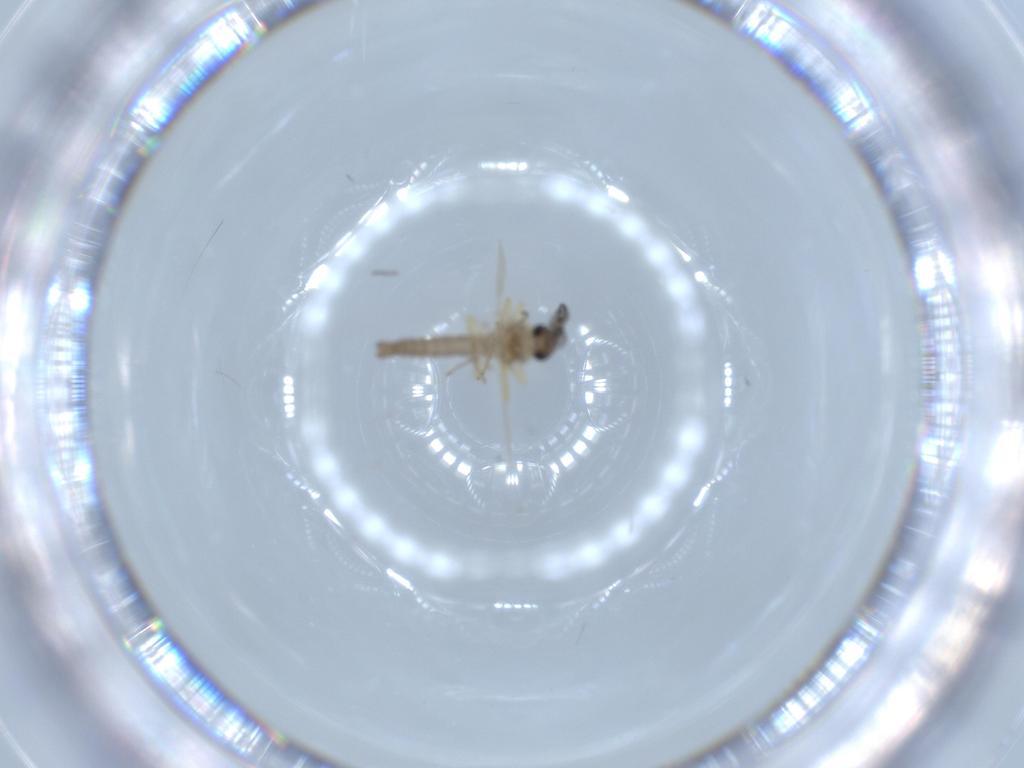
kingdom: Animalia
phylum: Arthropoda
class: Insecta
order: Diptera
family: Ceratopogonidae
